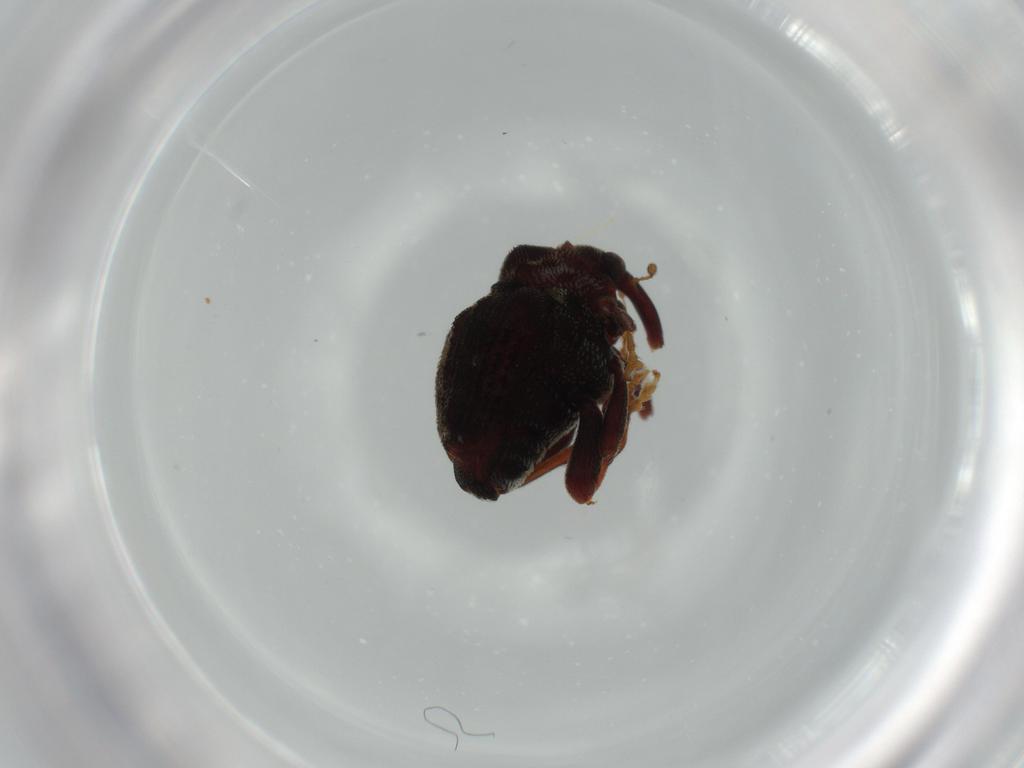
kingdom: Animalia
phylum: Arthropoda
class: Insecta
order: Coleoptera
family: Curculionidae
